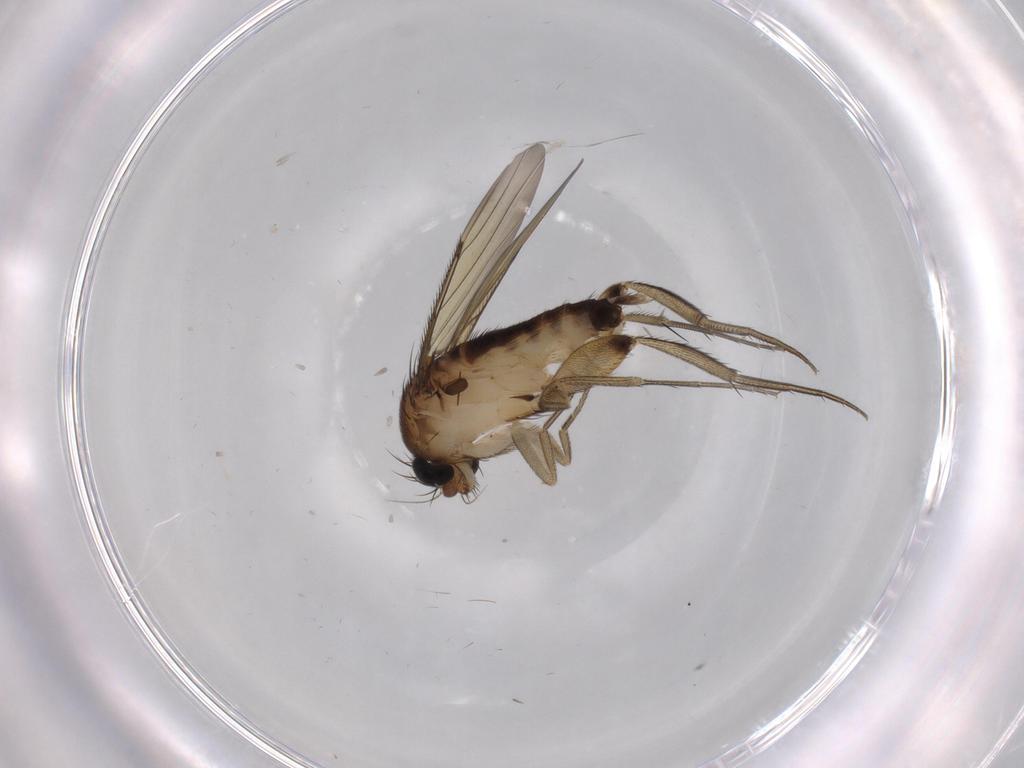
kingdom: Animalia
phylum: Arthropoda
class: Insecta
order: Diptera
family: Phoridae
